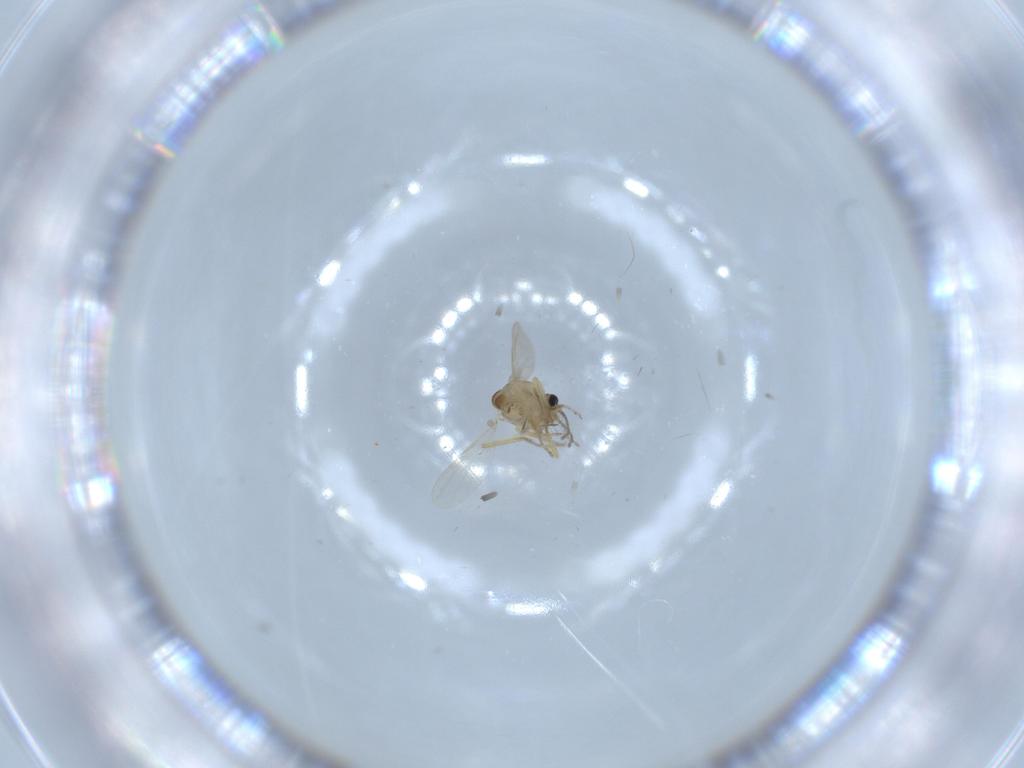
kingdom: Animalia
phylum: Arthropoda
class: Insecta
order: Diptera
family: Ceratopogonidae
